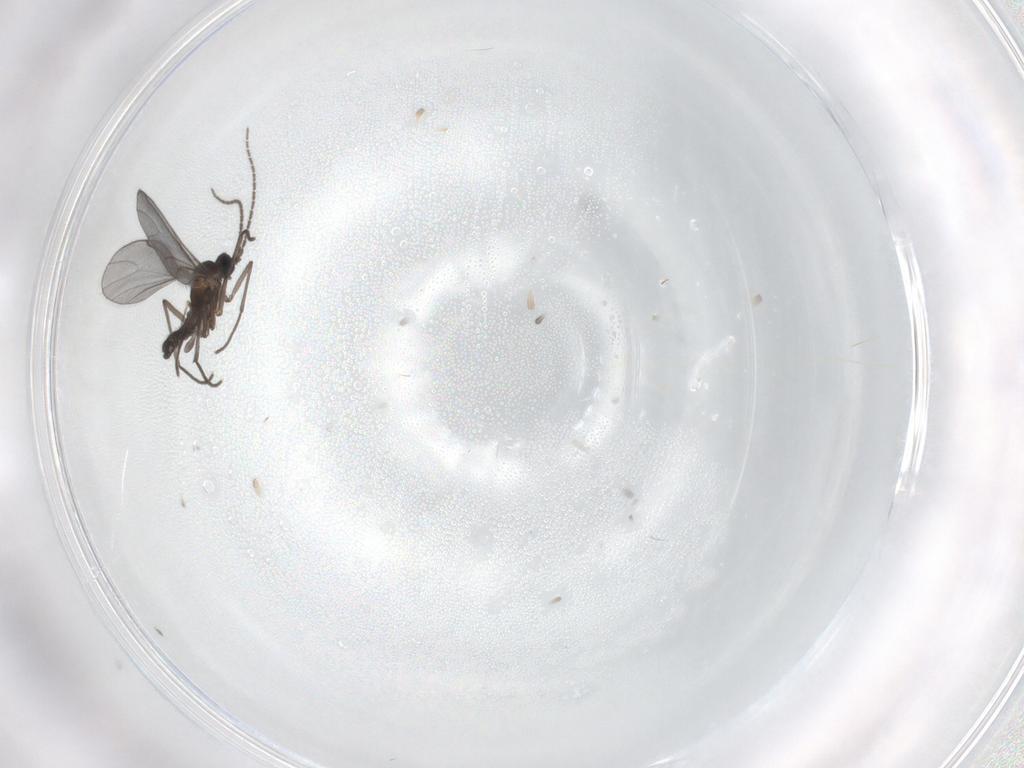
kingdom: Animalia
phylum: Arthropoda
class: Insecta
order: Diptera
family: Sciaridae
